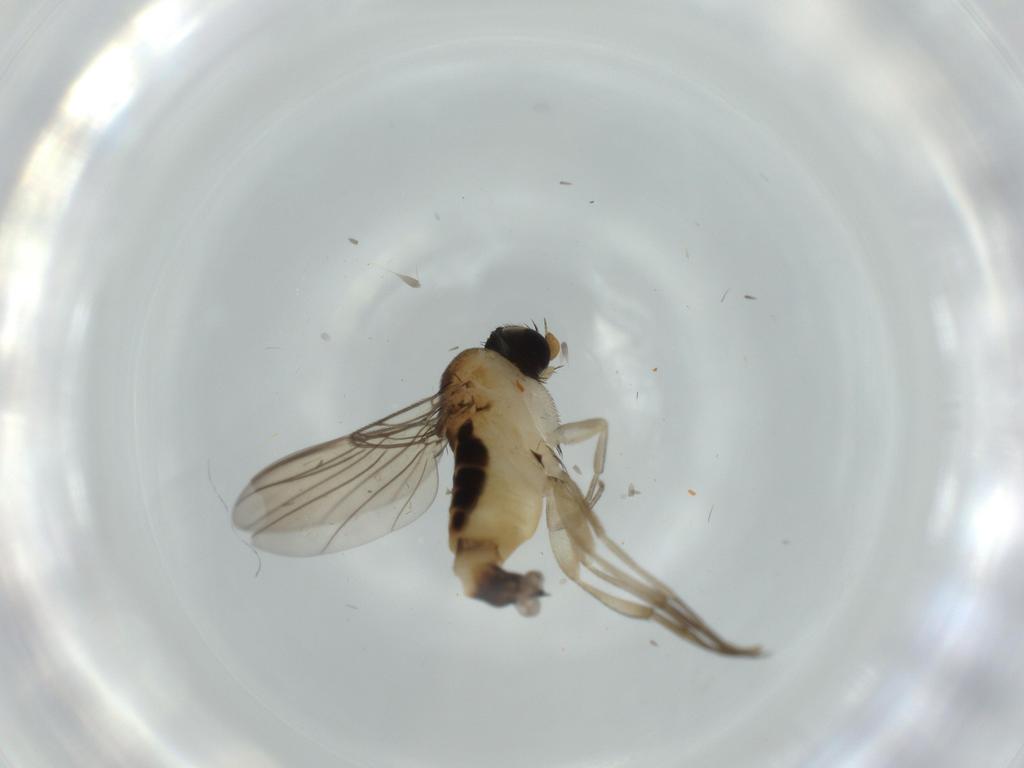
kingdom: Animalia
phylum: Arthropoda
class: Insecta
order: Diptera
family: Phoridae
